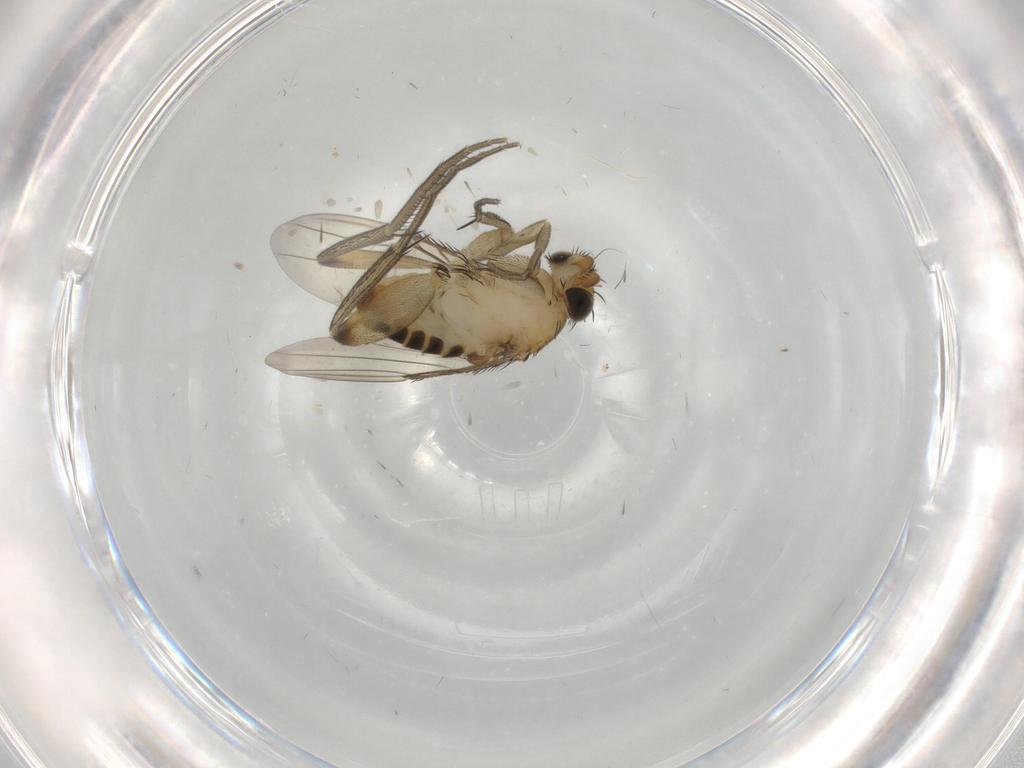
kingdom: Animalia
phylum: Arthropoda
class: Insecta
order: Diptera
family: Phoridae
